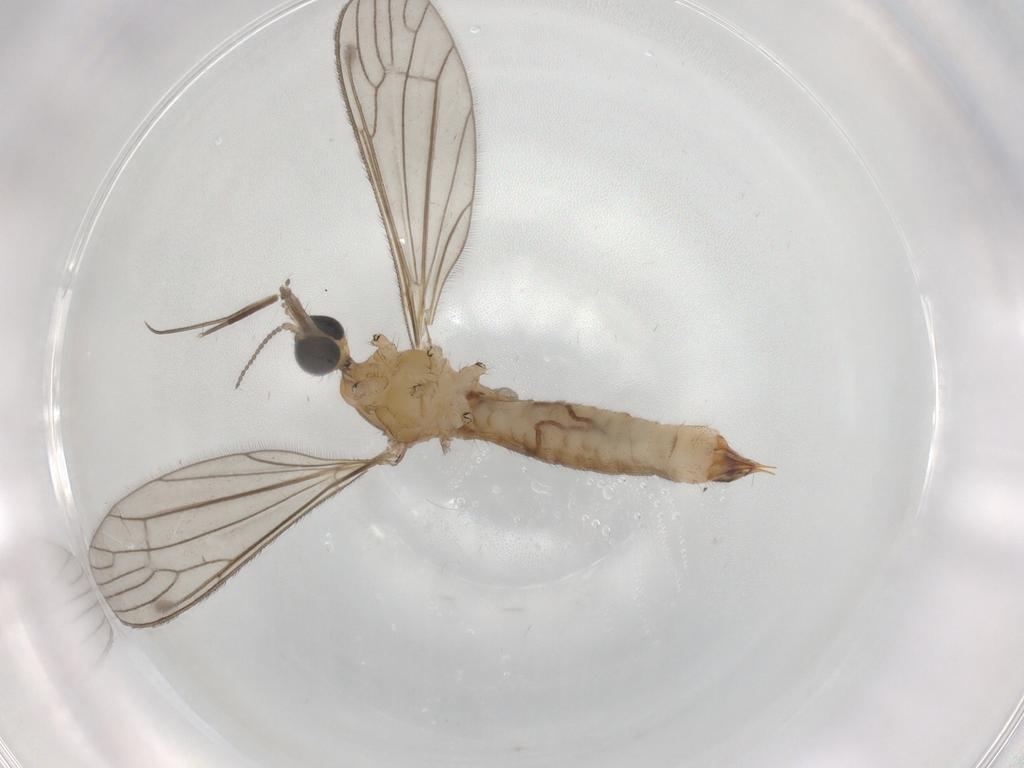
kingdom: Animalia
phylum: Arthropoda
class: Insecta
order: Diptera
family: Limoniidae
